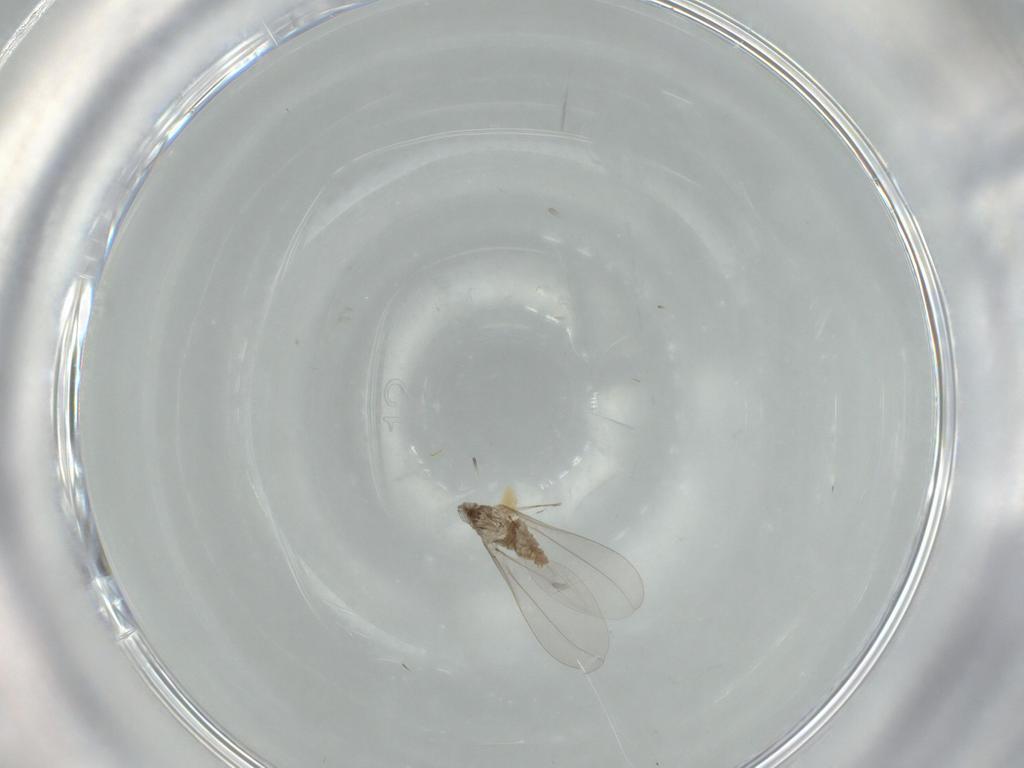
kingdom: Animalia
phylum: Arthropoda
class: Insecta
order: Diptera
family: Cecidomyiidae
